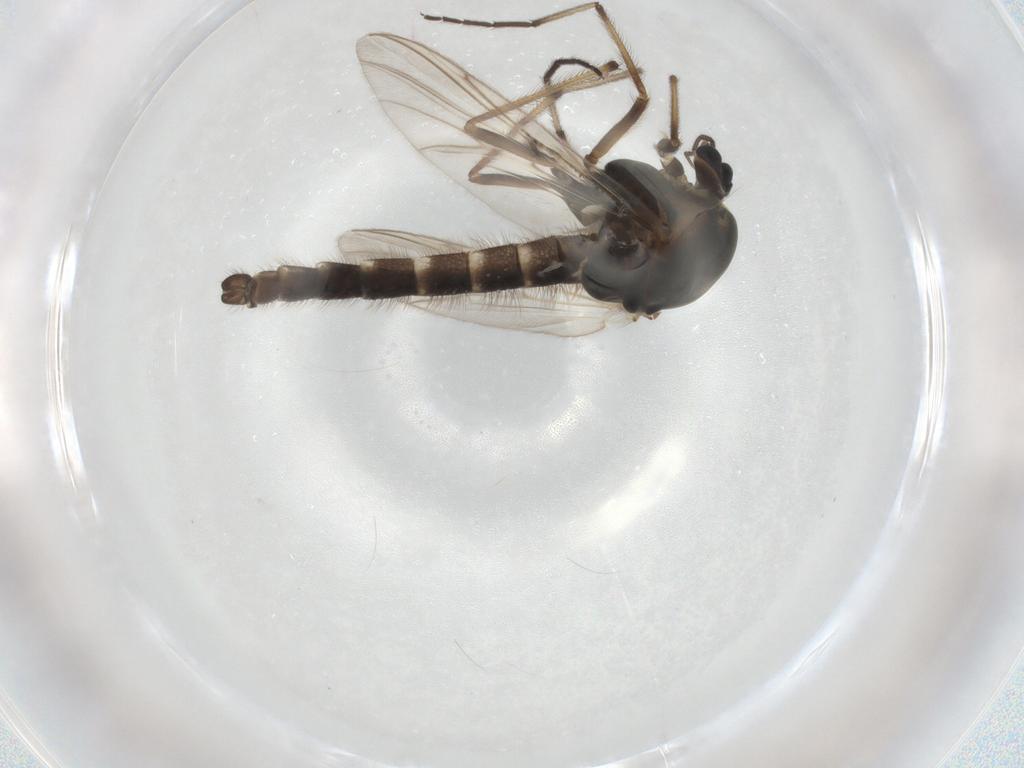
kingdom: Animalia
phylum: Arthropoda
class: Insecta
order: Diptera
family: Chironomidae
